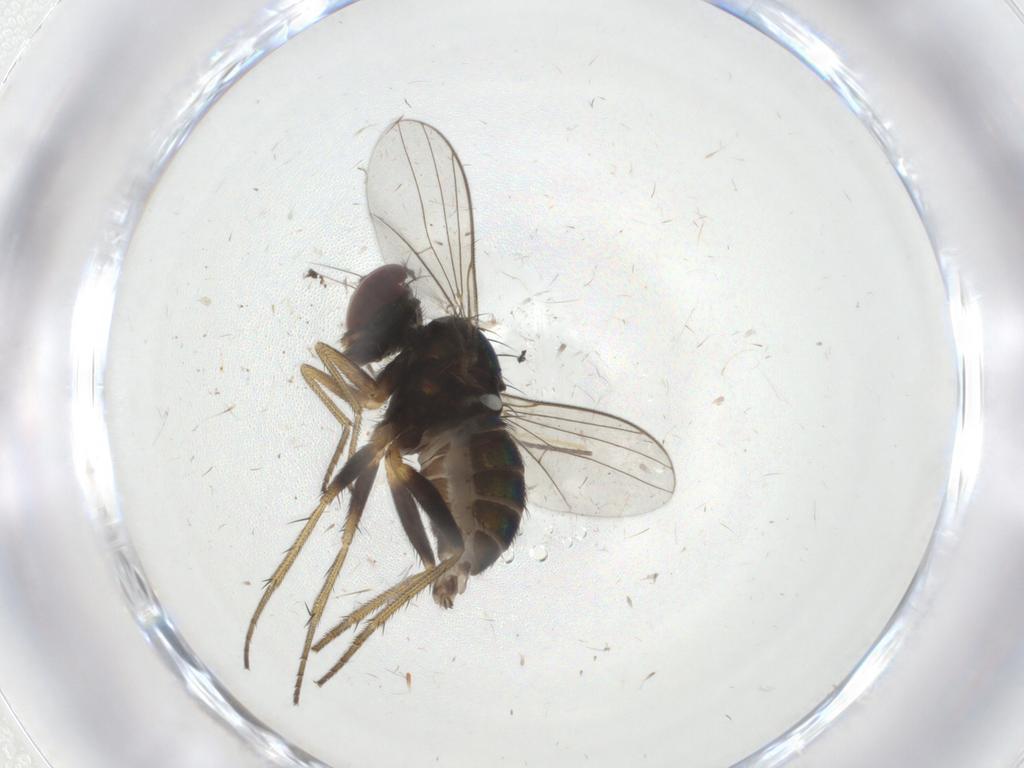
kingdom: Animalia
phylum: Arthropoda
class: Insecta
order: Diptera
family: Dolichopodidae
